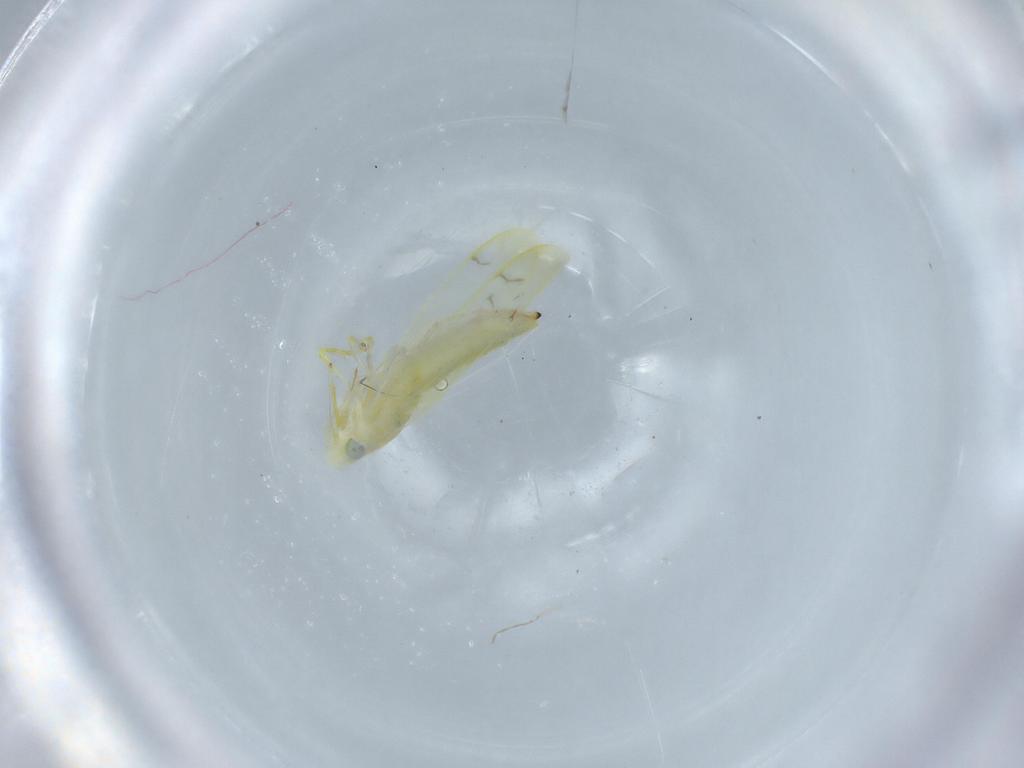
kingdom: Animalia
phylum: Arthropoda
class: Insecta
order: Hemiptera
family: Cicadellidae
